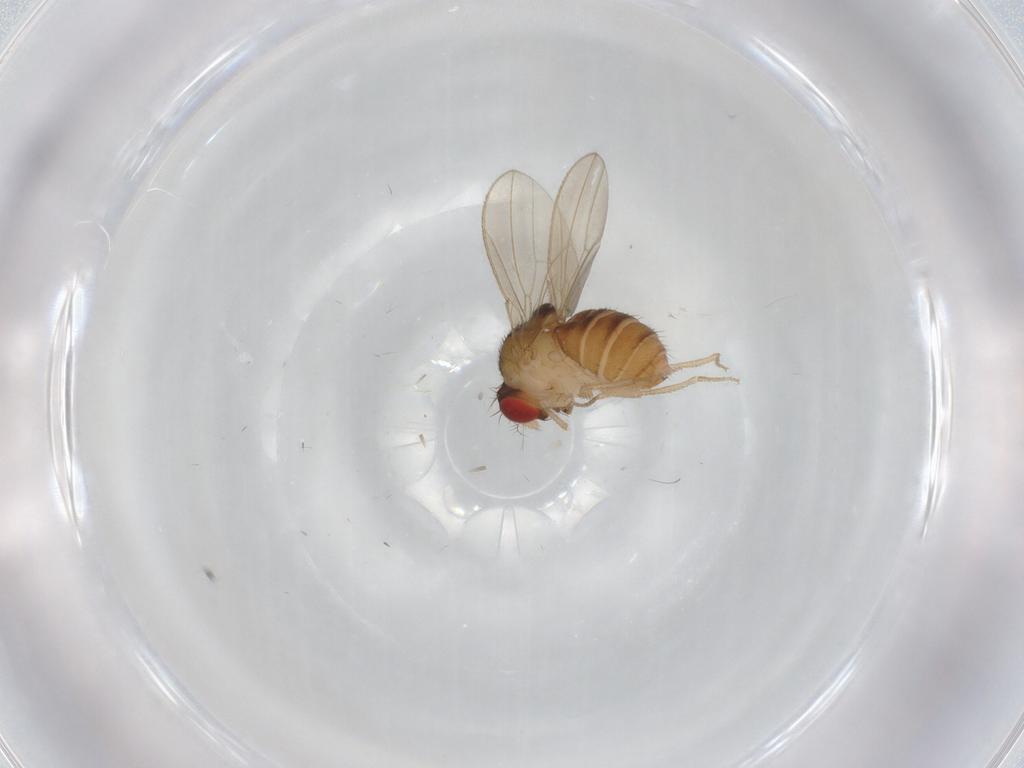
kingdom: Animalia
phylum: Arthropoda
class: Insecta
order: Diptera
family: Drosophilidae
